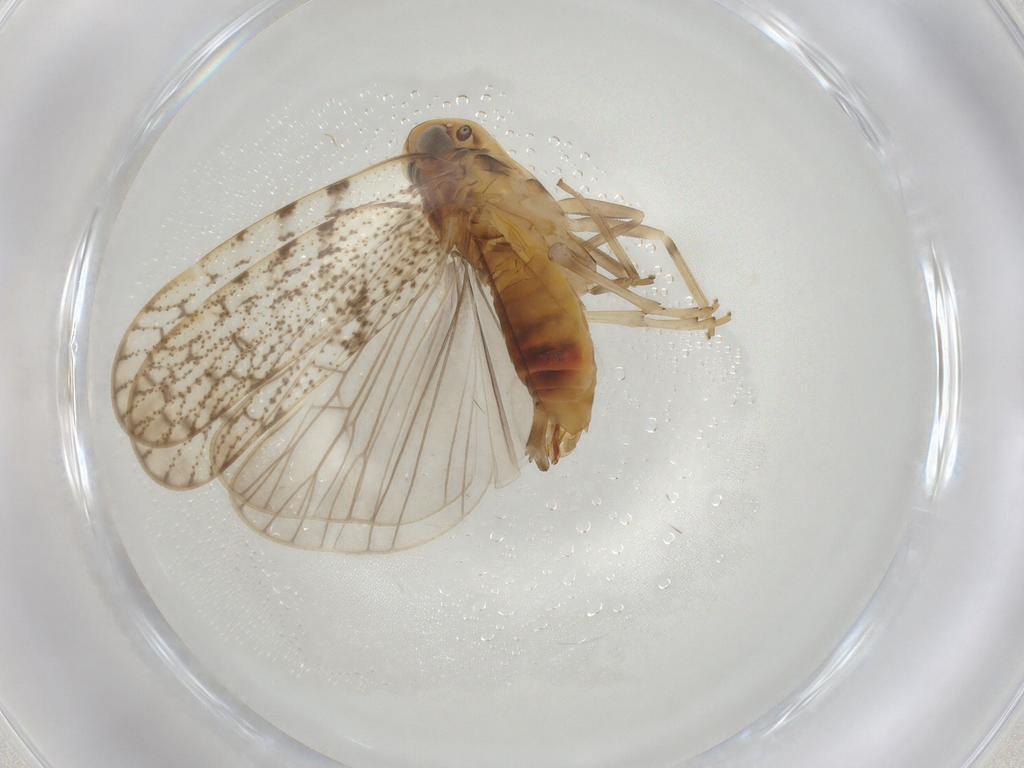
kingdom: Animalia
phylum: Arthropoda
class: Insecta
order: Hemiptera
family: Aleyrodidae
